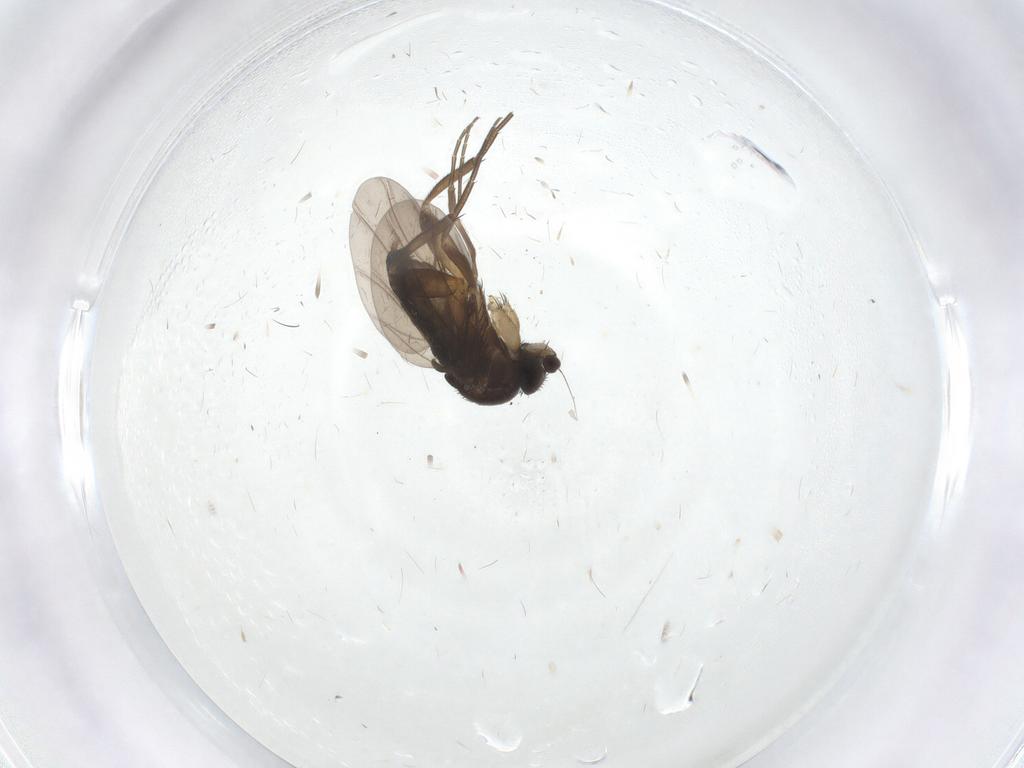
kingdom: Animalia
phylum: Arthropoda
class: Insecta
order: Diptera
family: Phoridae
